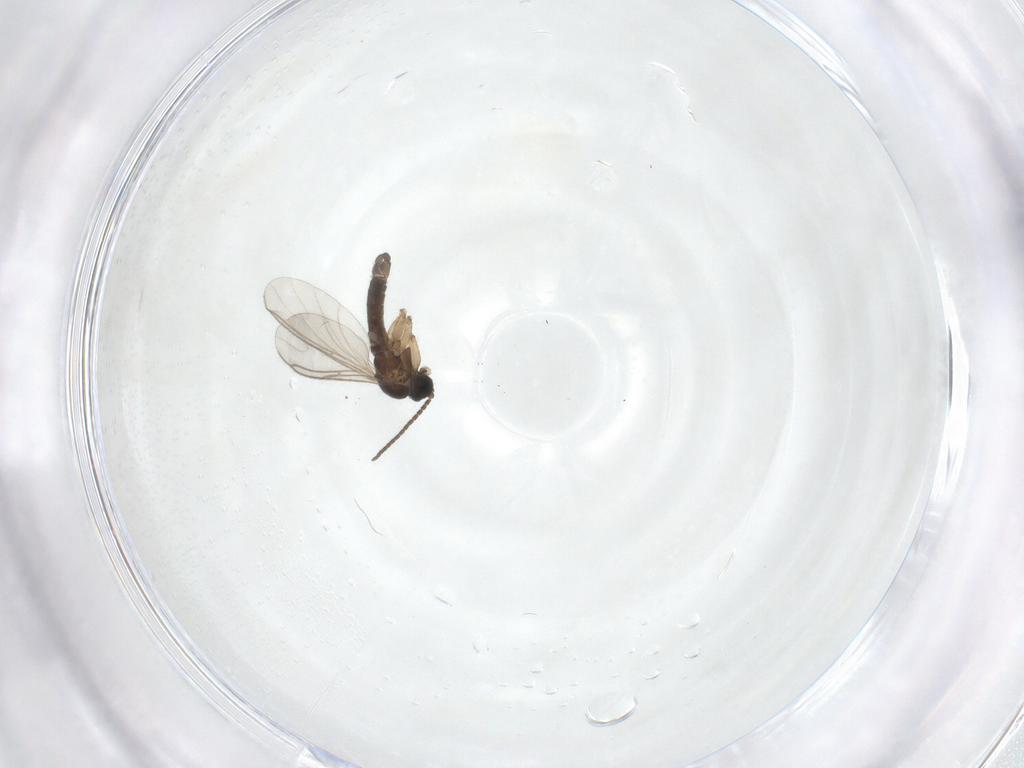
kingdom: Animalia
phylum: Arthropoda
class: Insecta
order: Diptera
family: Sciaridae
